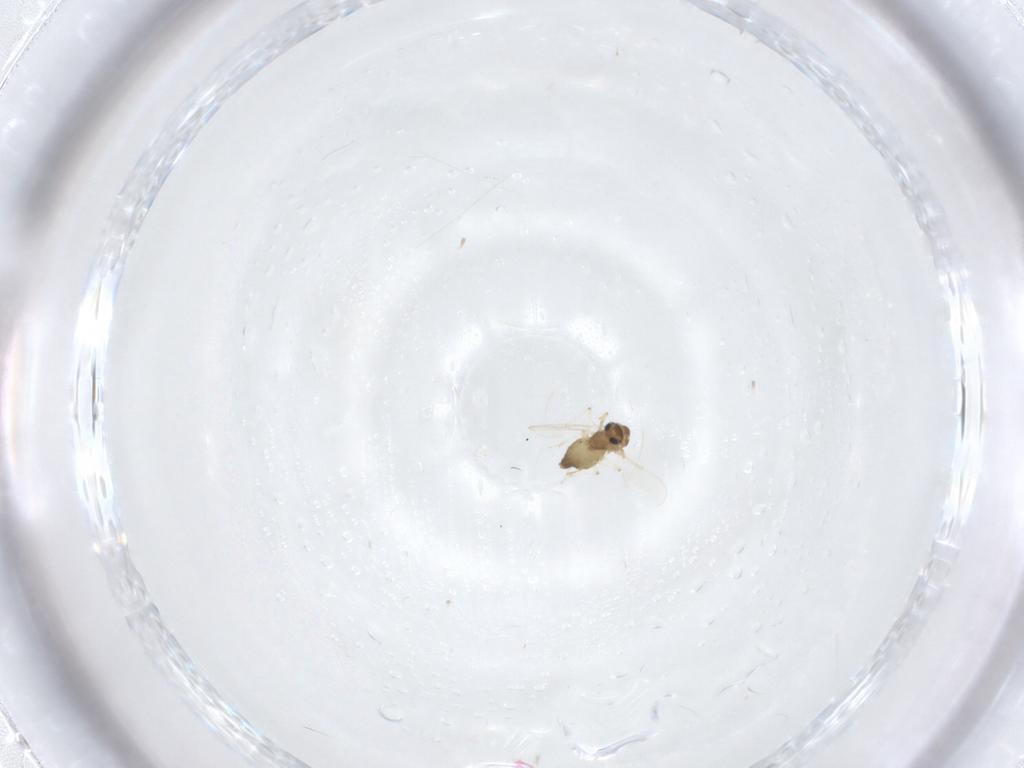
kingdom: Animalia
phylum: Arthropoda
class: Insecta
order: Diptera
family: Chironomidae
